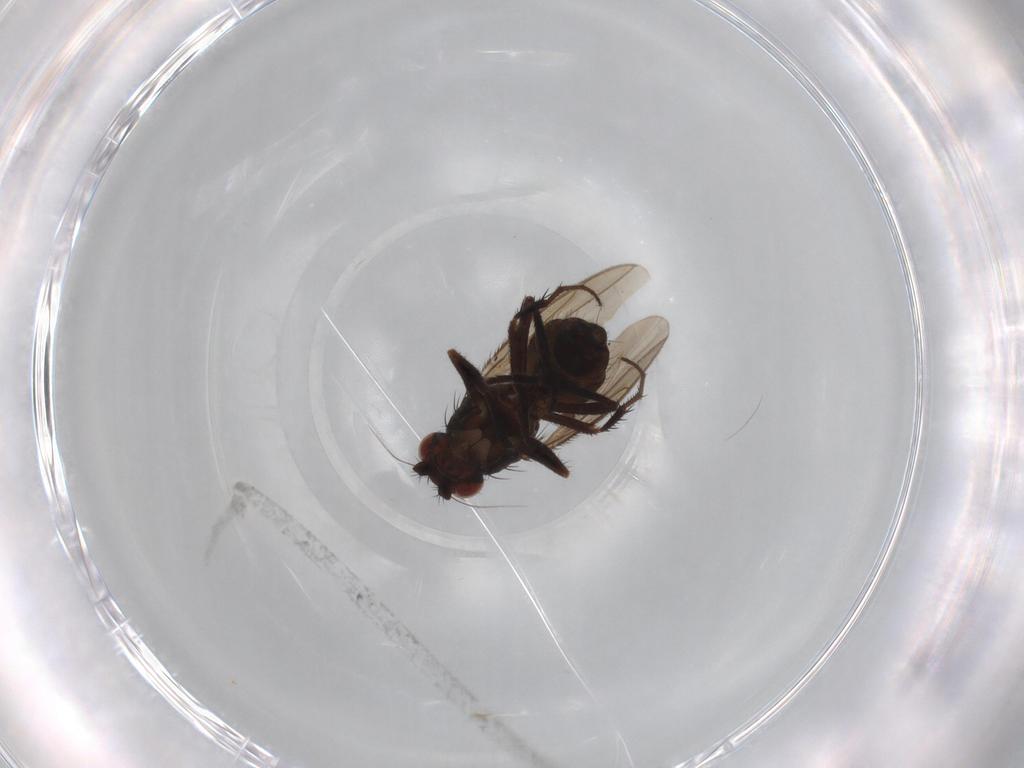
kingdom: Animalia
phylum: Arthropoda
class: Insecta
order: Diptera
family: Sphaeroceridae
